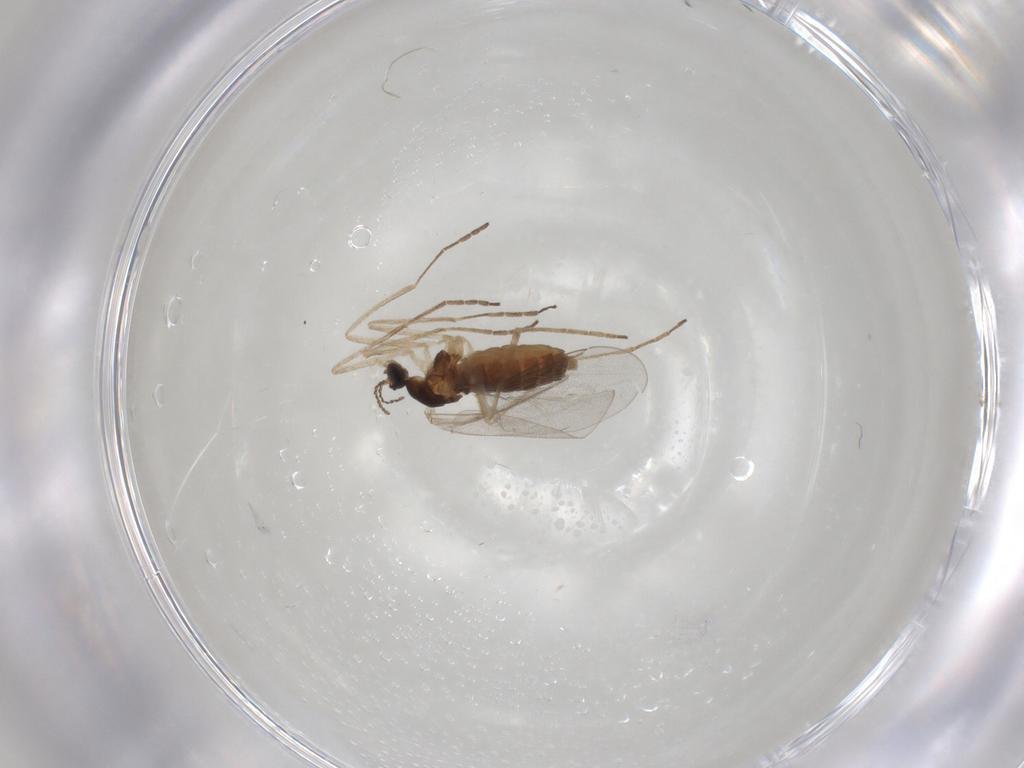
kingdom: Animalia
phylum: Arthropoda
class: Insecta
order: Diptera
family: Cecidomyiidae
